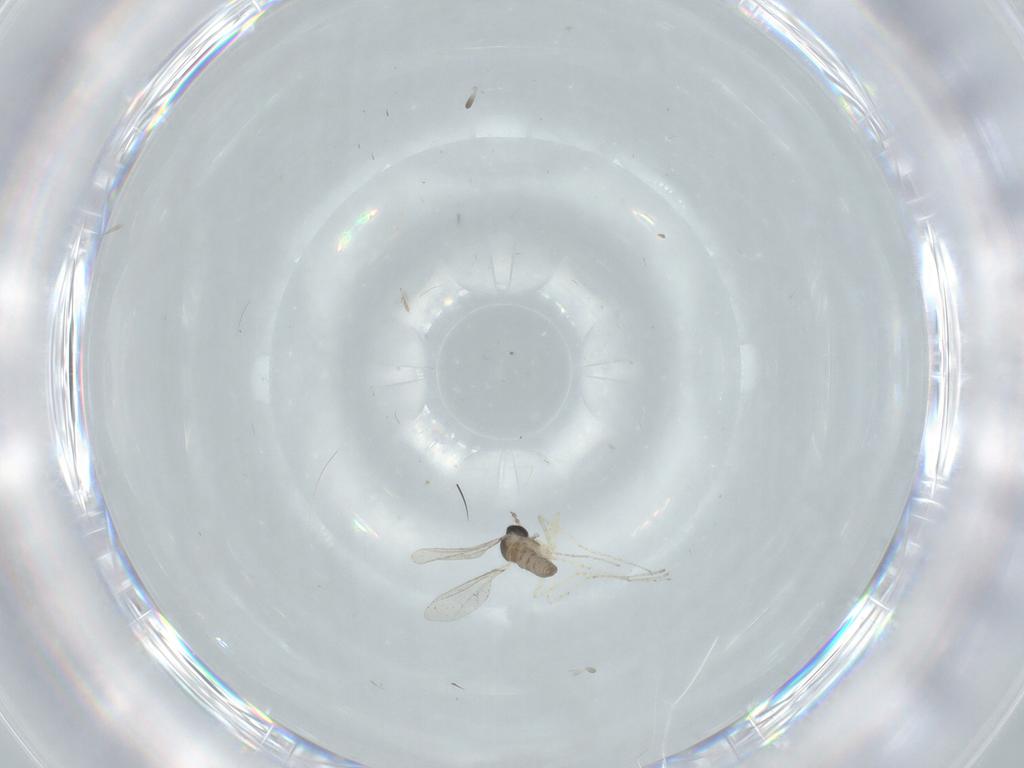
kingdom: Animalia
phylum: Arthropoda
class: Insecta
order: Diptera
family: Cecidomyiidae
